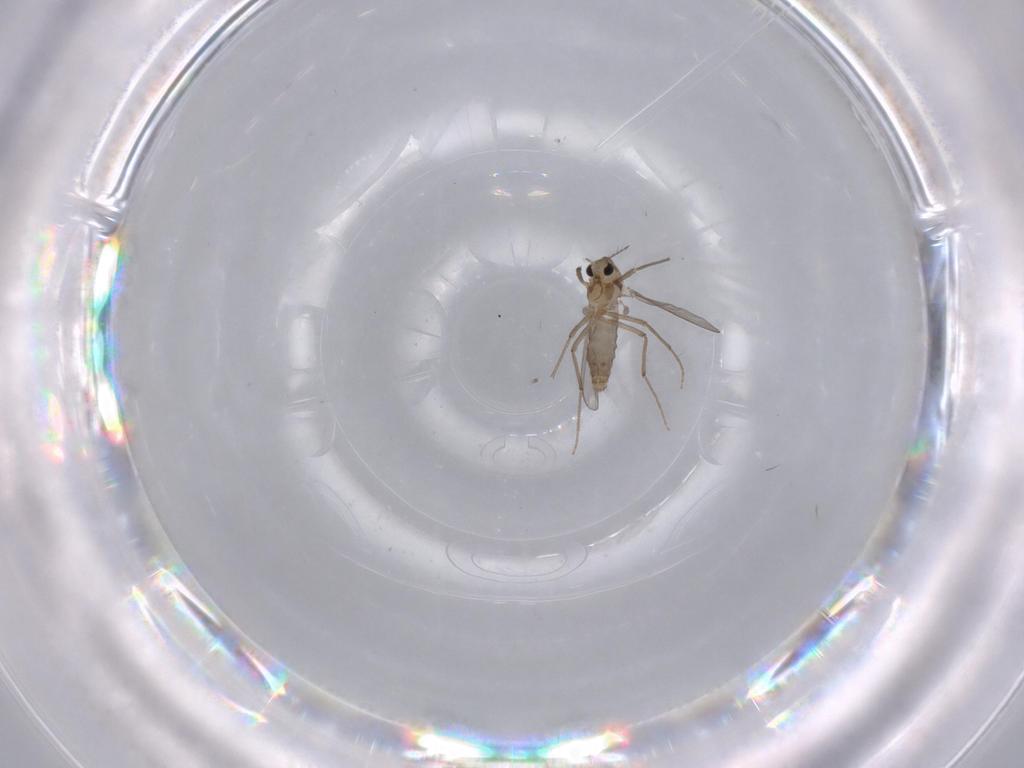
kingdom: Animalia
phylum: Arthropoda
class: Insecta
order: Diptera
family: Chironomidae
